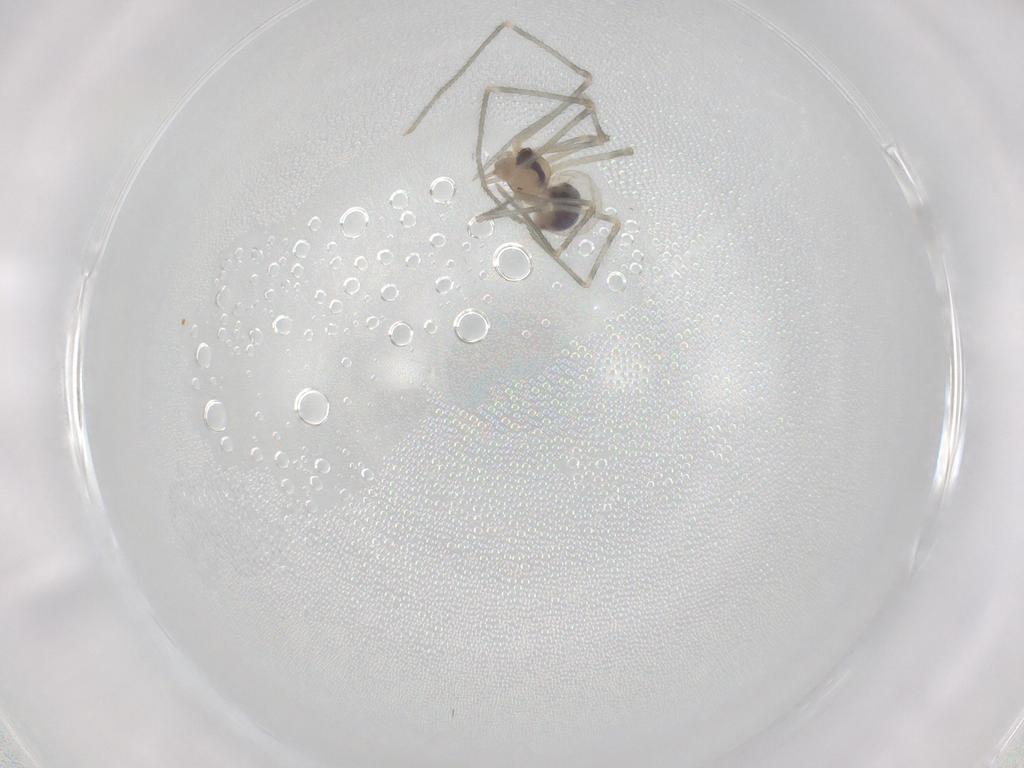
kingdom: Animalia
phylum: Arthropoda
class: Arachnida
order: Araneae
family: Pholcidae
